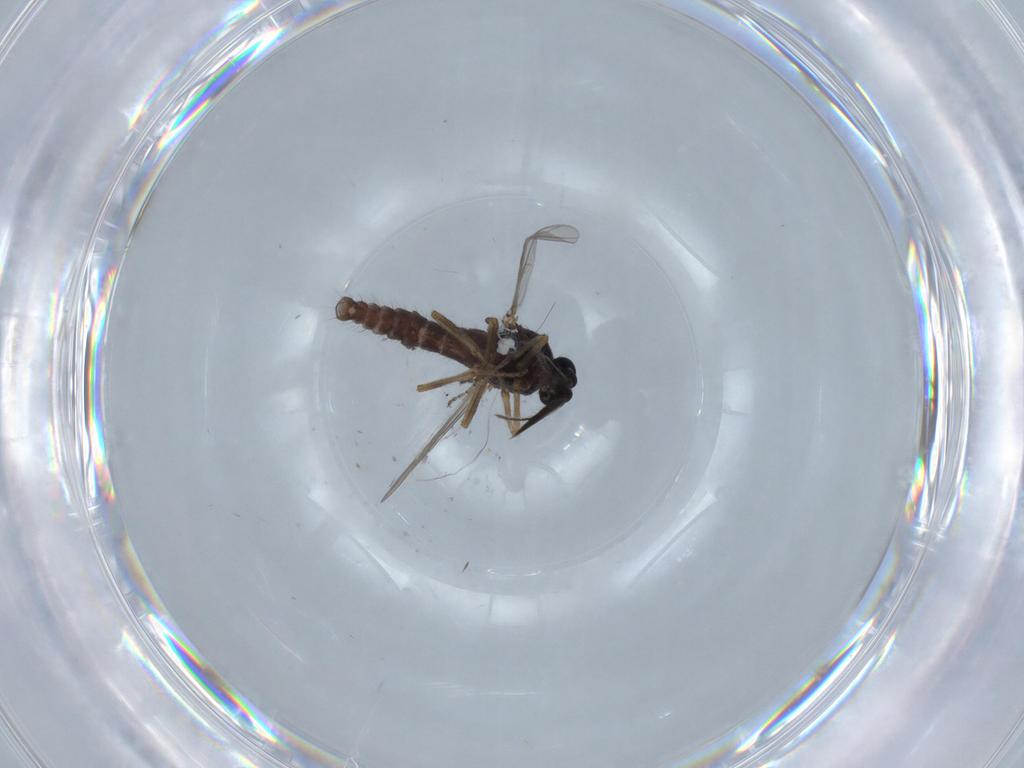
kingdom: Animalia
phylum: Arthropoda
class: Insecta
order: Diptera
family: Ceratopogonidae
